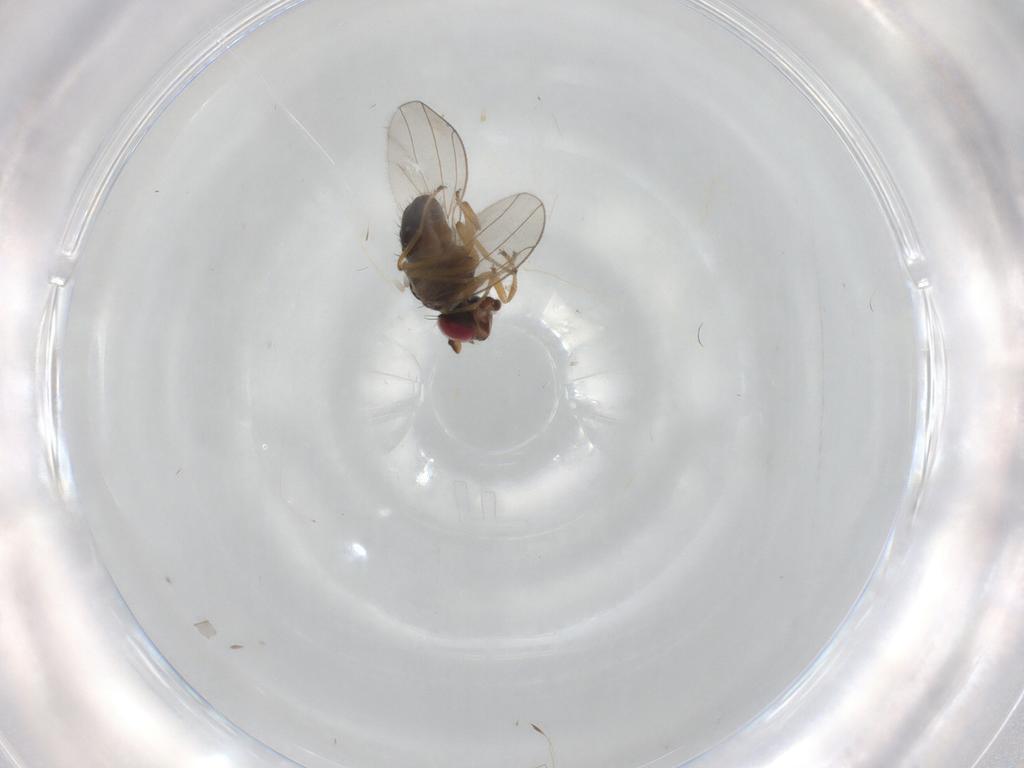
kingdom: Animalia
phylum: Arthropoda
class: Insecta
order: Diptera
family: Ephydridae
